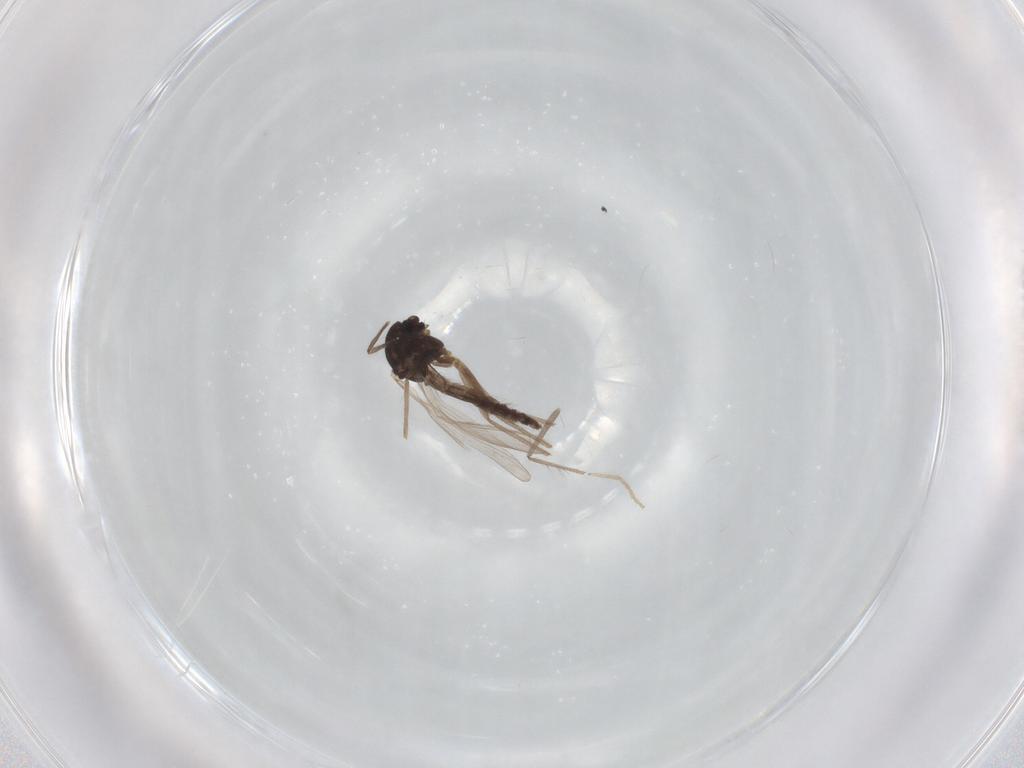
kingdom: Animalia
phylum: Arthropoda
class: Insecta
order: Diptera
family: Chironomidae
